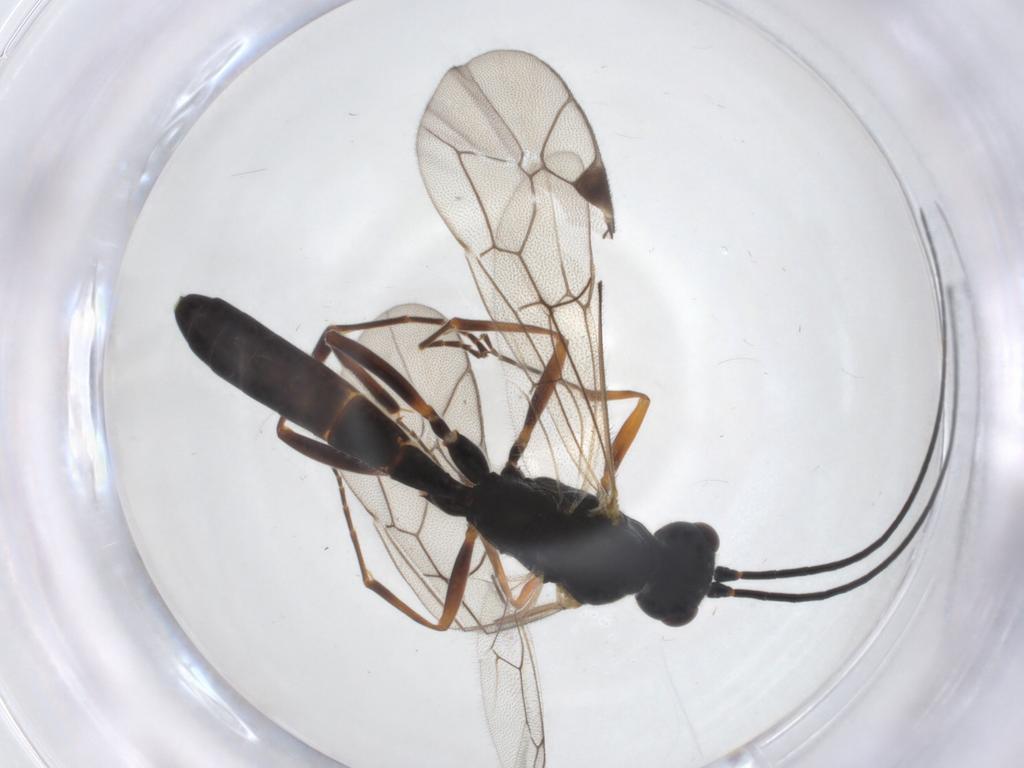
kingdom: Animalia
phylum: Arthropoda
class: Insecta
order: Hymenoptera
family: Ichneumonidae
